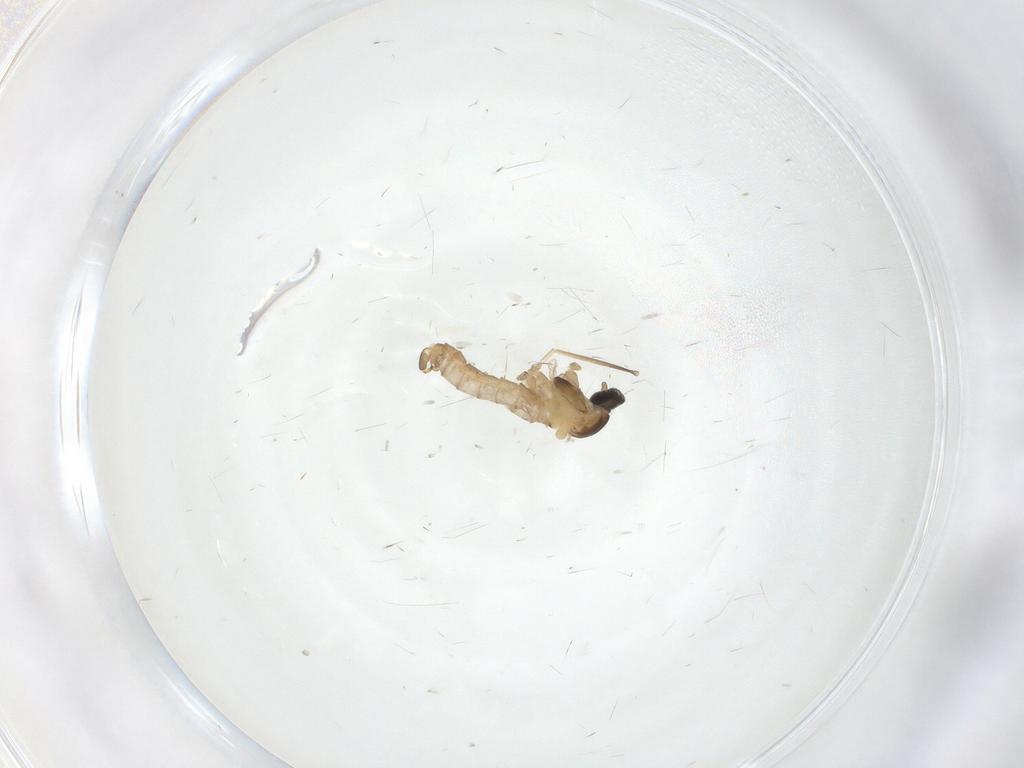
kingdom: Animalia
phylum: Arthropoda
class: Insecta
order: Diptera
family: Cecidomyiidae
